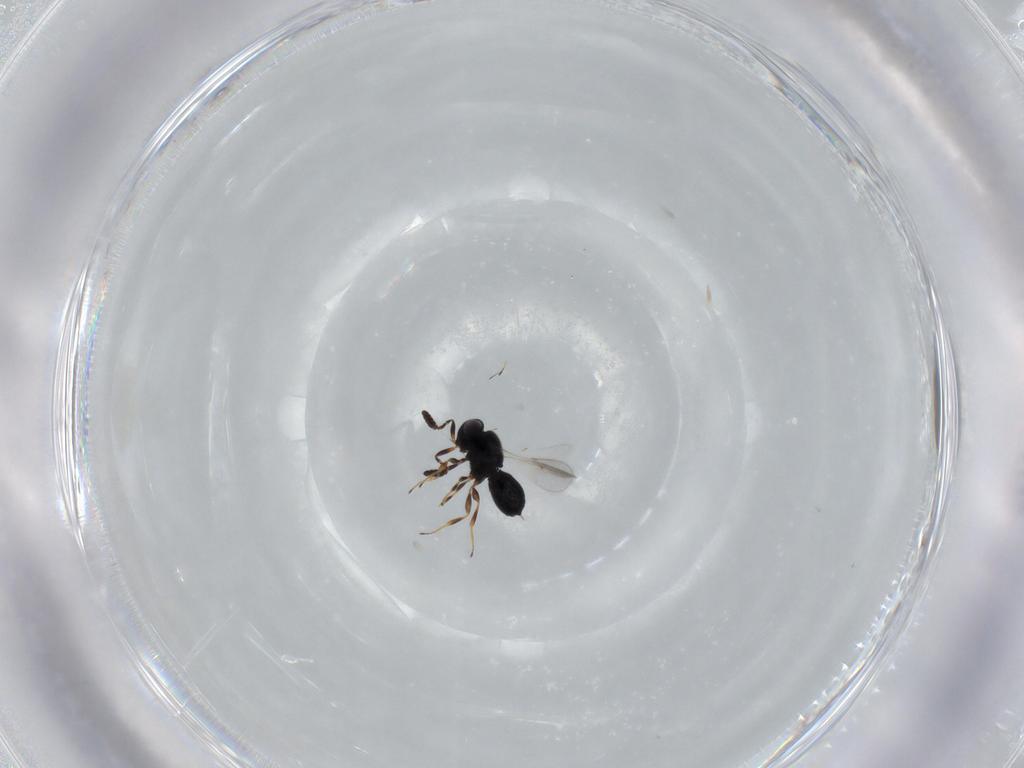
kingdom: Animalia
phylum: Arthropoda
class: Insecta
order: Hymenoptera
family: Scelionidae
